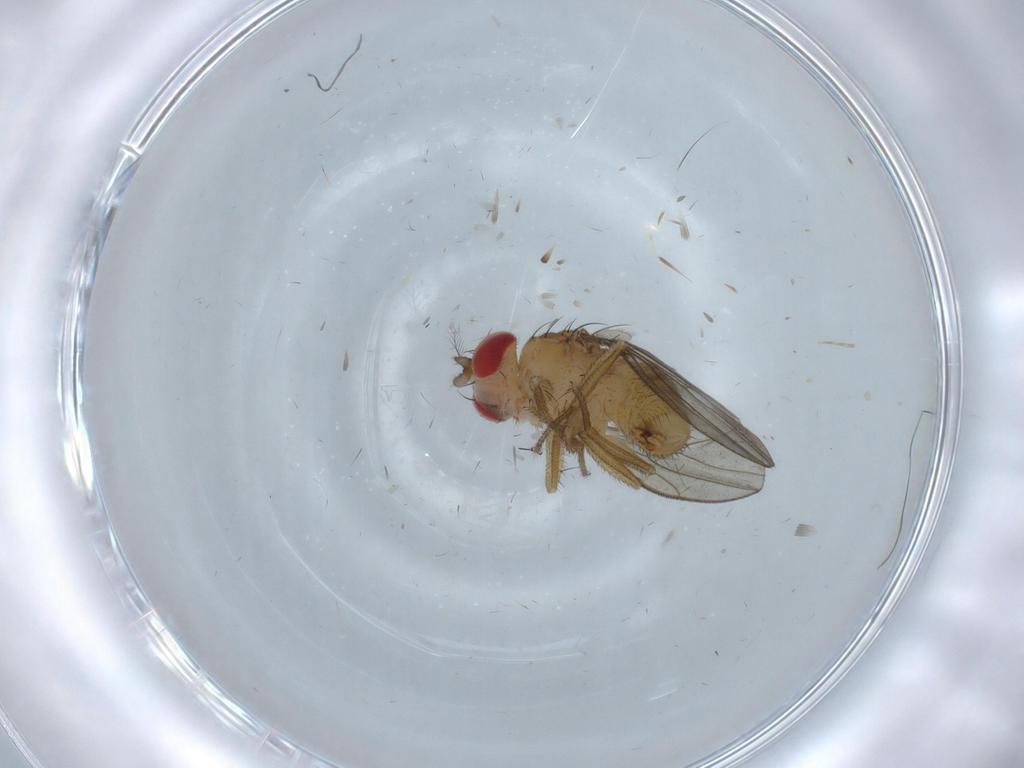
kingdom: Animalia
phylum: Arthropoda
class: Insecta
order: Diptera
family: Drosophilidae
